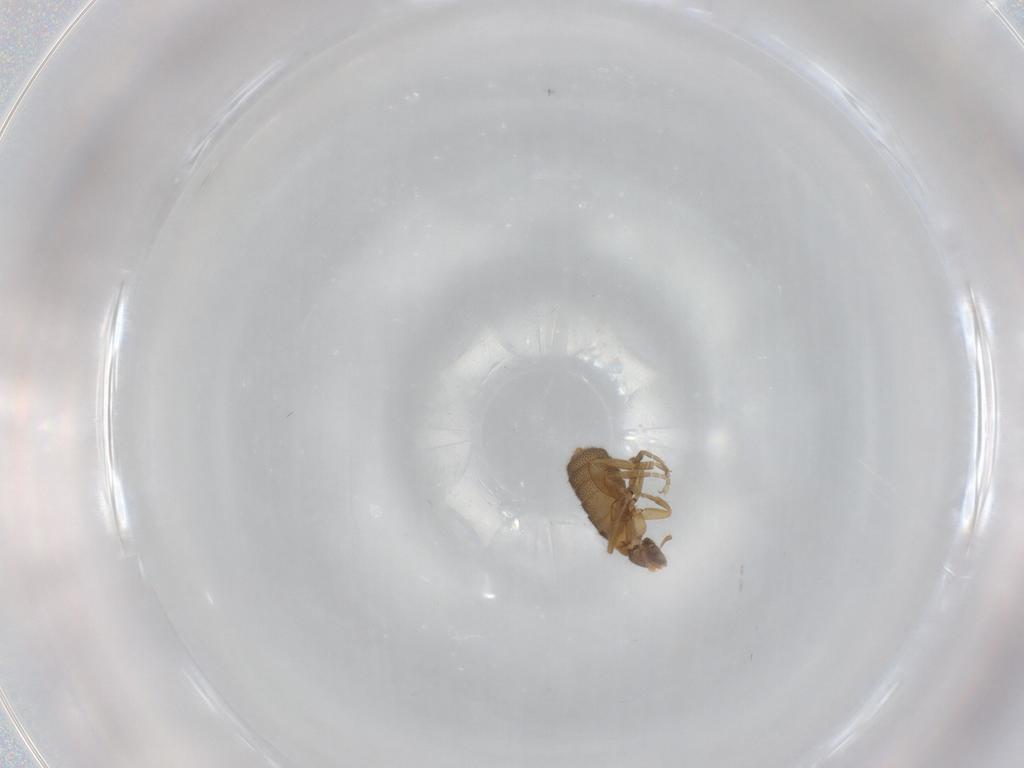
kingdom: Animalia
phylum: Arthropoda
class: Insecta
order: Diptera
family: Phoridae
